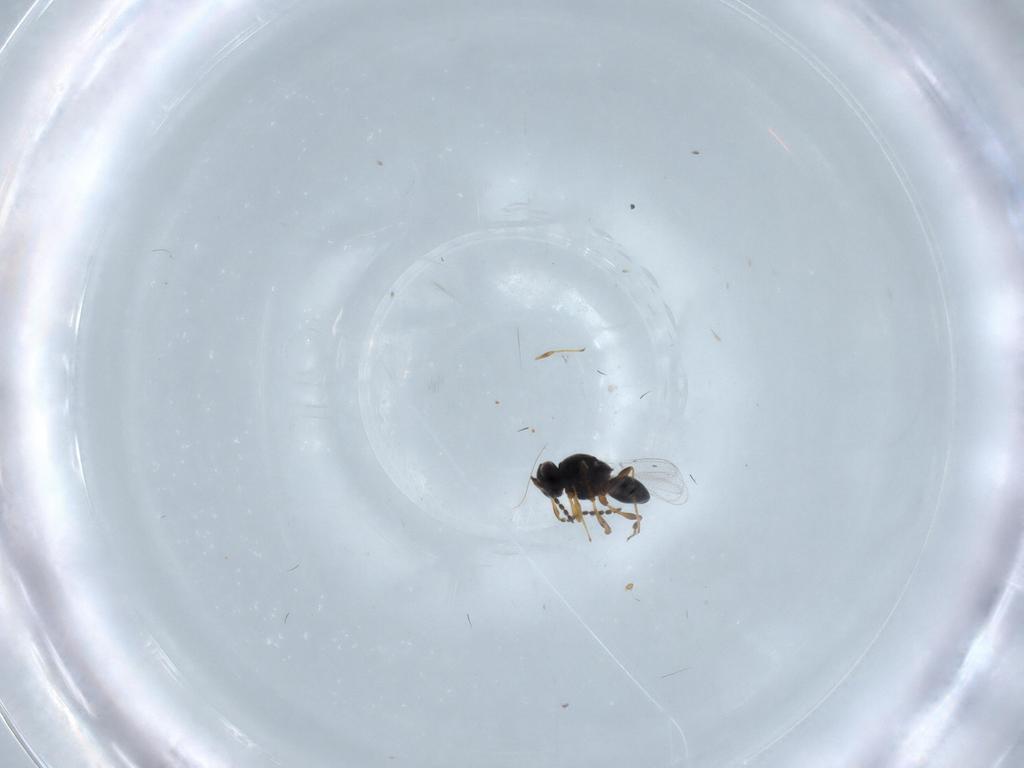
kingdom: Animalia
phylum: Arthropoda
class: Insecta
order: Hymenoptera
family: Platygastridae
